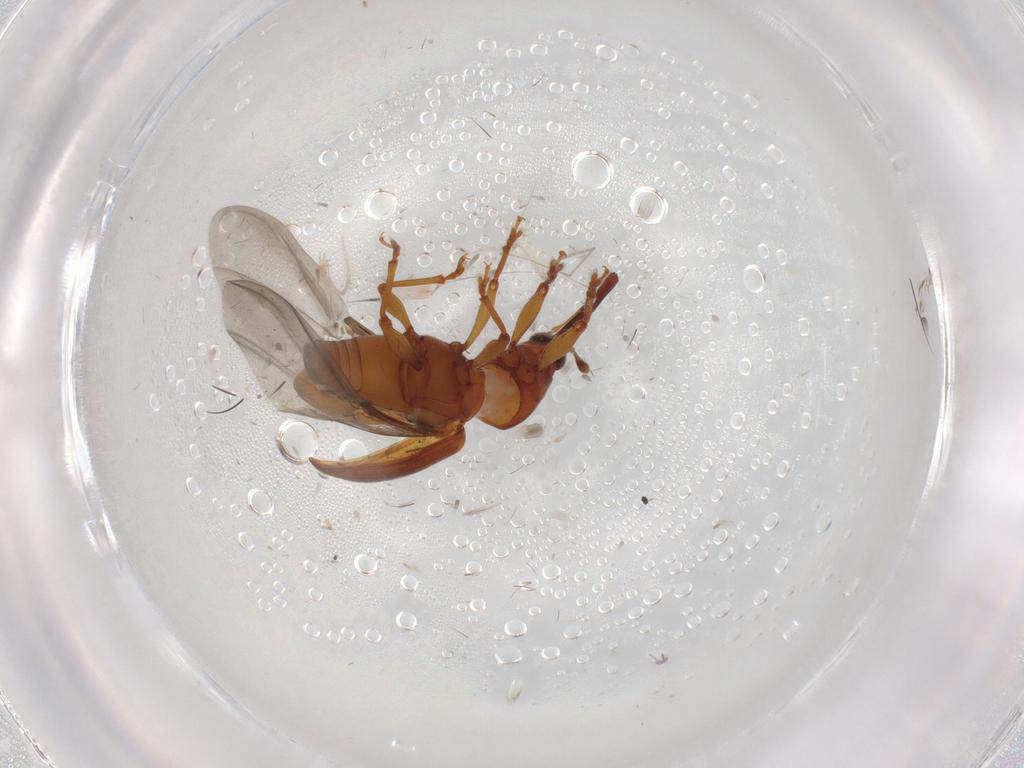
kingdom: Animalia
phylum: Arthropoda
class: Insecta
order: Coleoptera
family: Curculionidae
